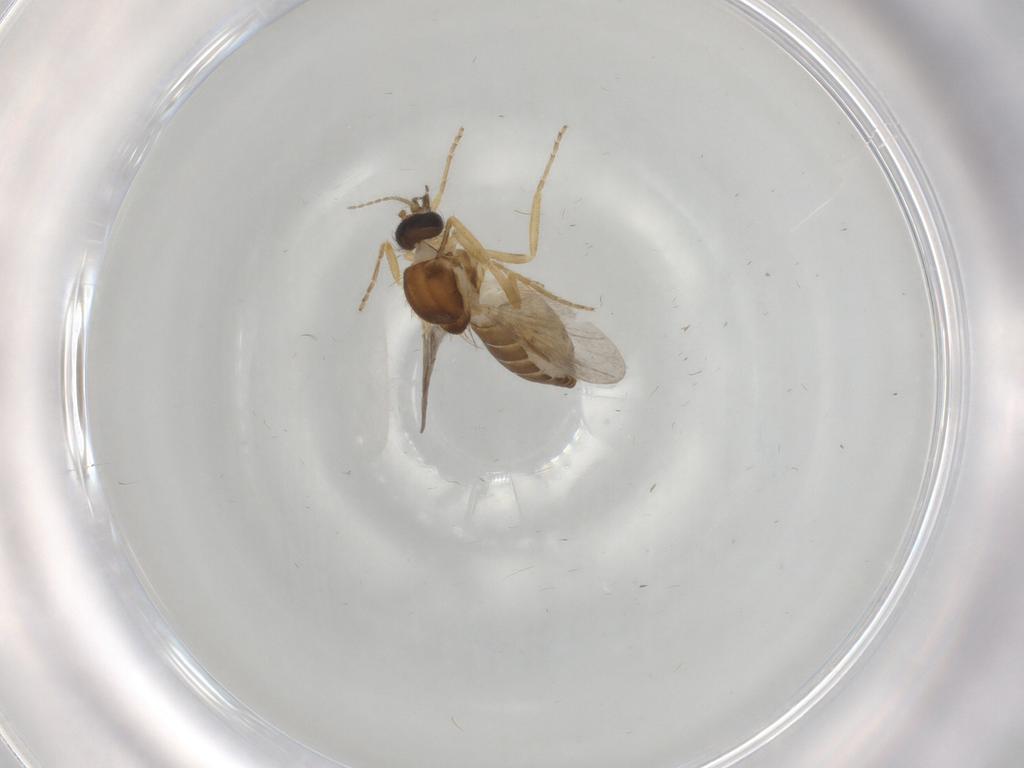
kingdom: Animalia
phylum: Arthropoda
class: Insecta
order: Diptera
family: Ceratopogonidae
